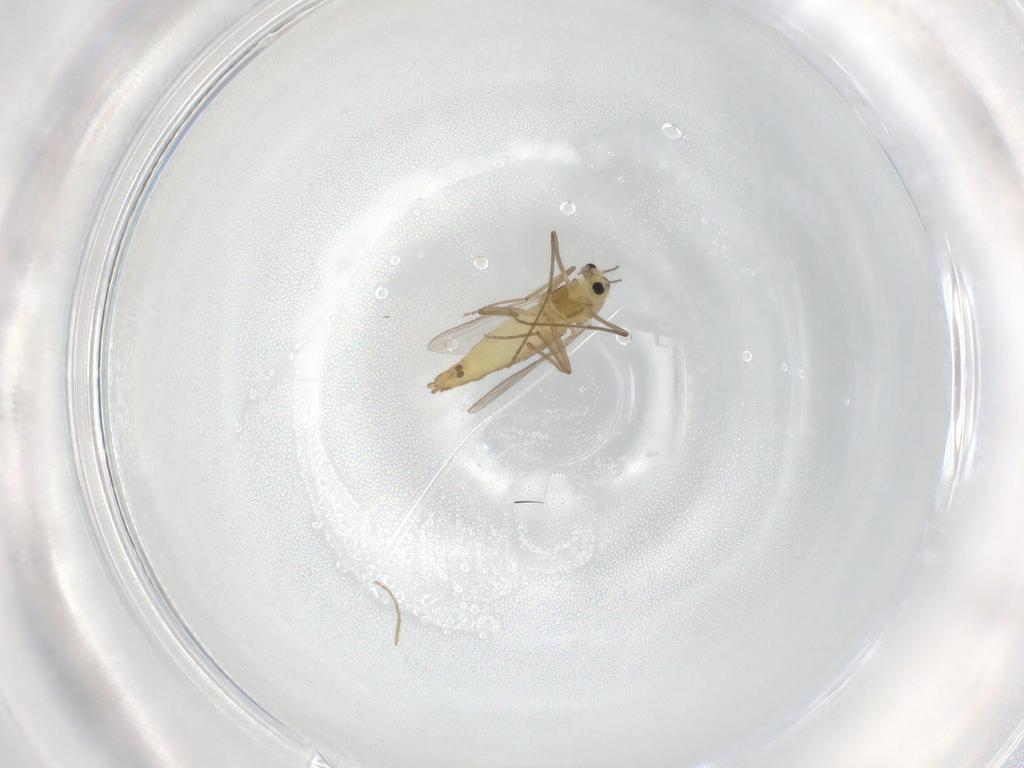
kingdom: Animalia
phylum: Arthropoda
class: Insecta
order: Diptera
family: Chironomidae
